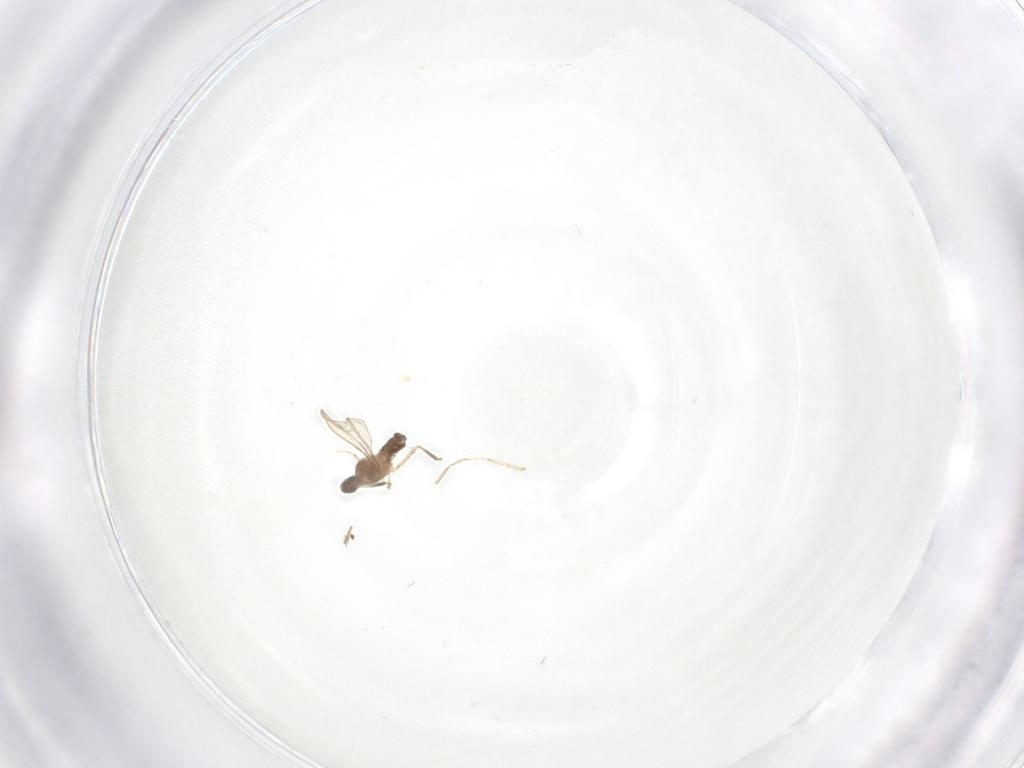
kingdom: Animalia
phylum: Arthropoda
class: Insecta
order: Diptera
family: Cecidomyiidae
